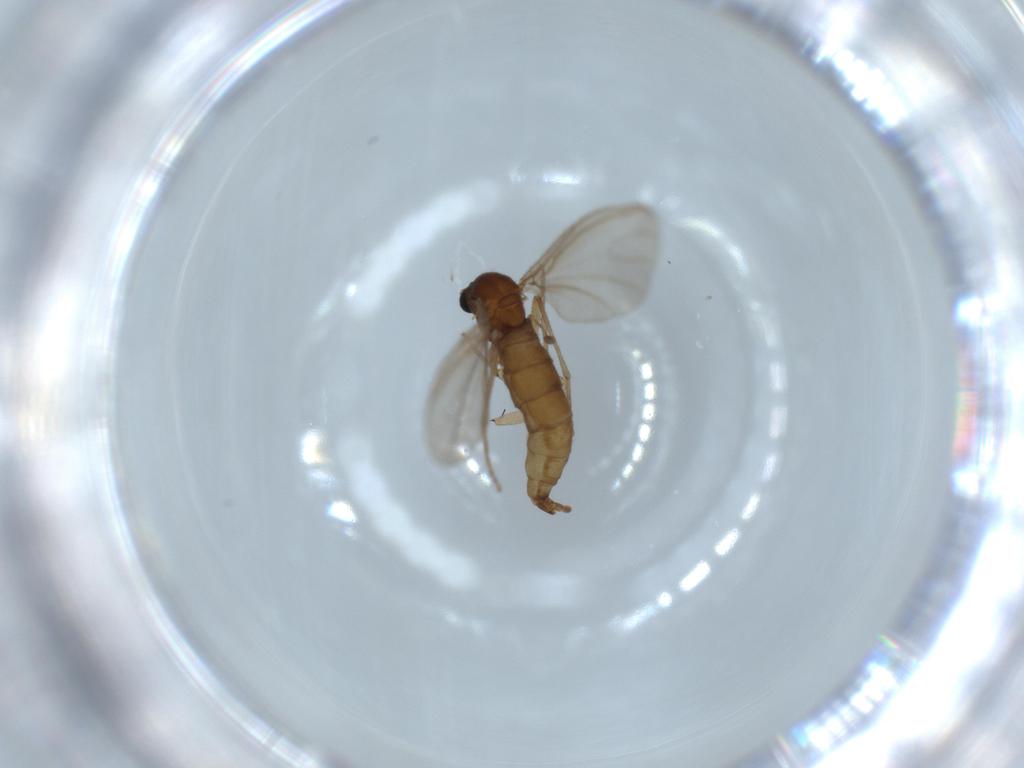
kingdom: Animalia
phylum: Arthropoda
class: Insecta
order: Diptera
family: Sciaridae
